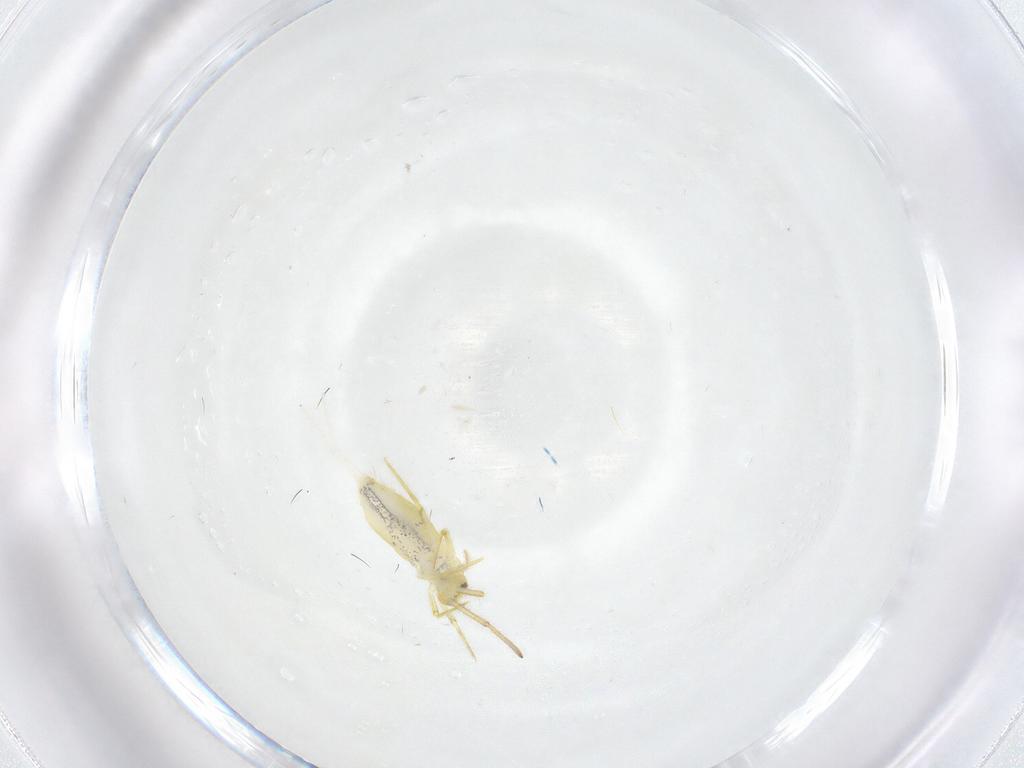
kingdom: Animalia
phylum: Arthropoda
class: Collembola
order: Entomobryomorpha
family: Entomobryidae
